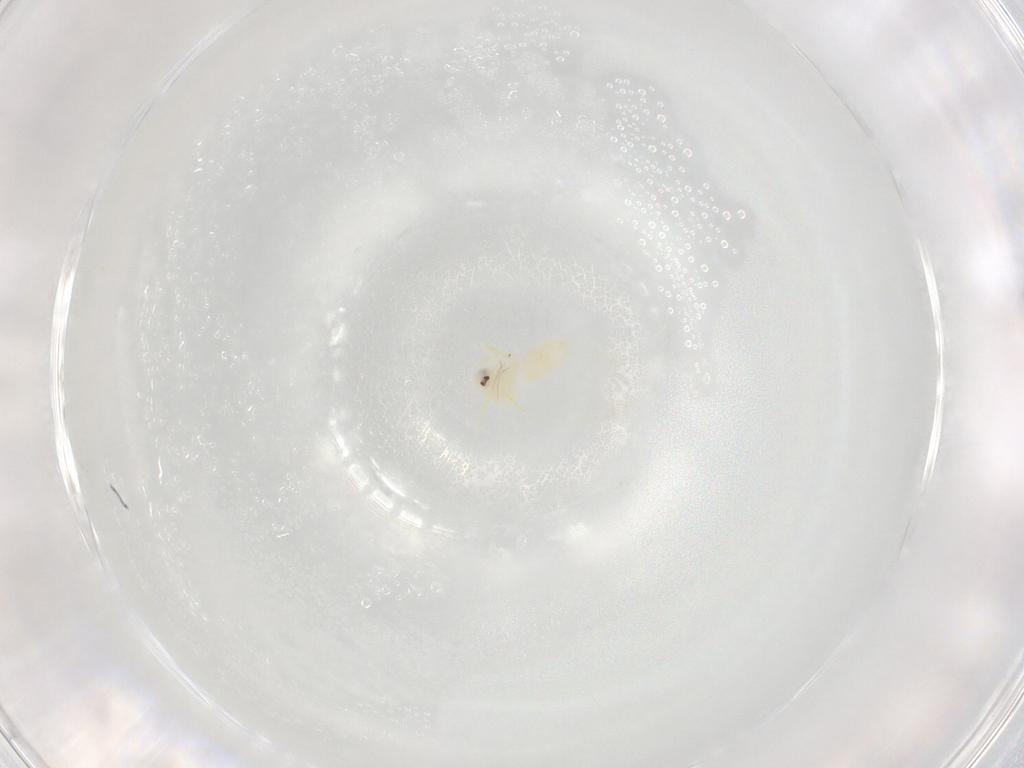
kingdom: Animalia
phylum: Arthropoda
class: Insecta
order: Hemiptera
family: Aleyrodidae
